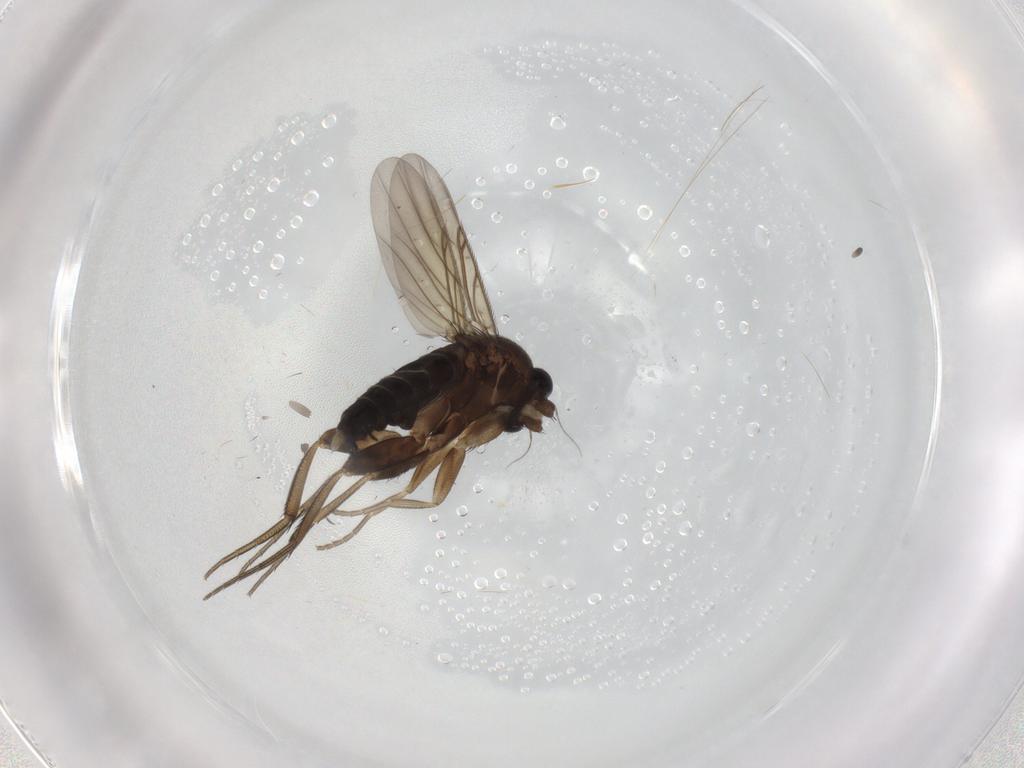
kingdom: Animalia
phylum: Arthropoda
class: Insecta
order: Diptera
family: Phoridae
